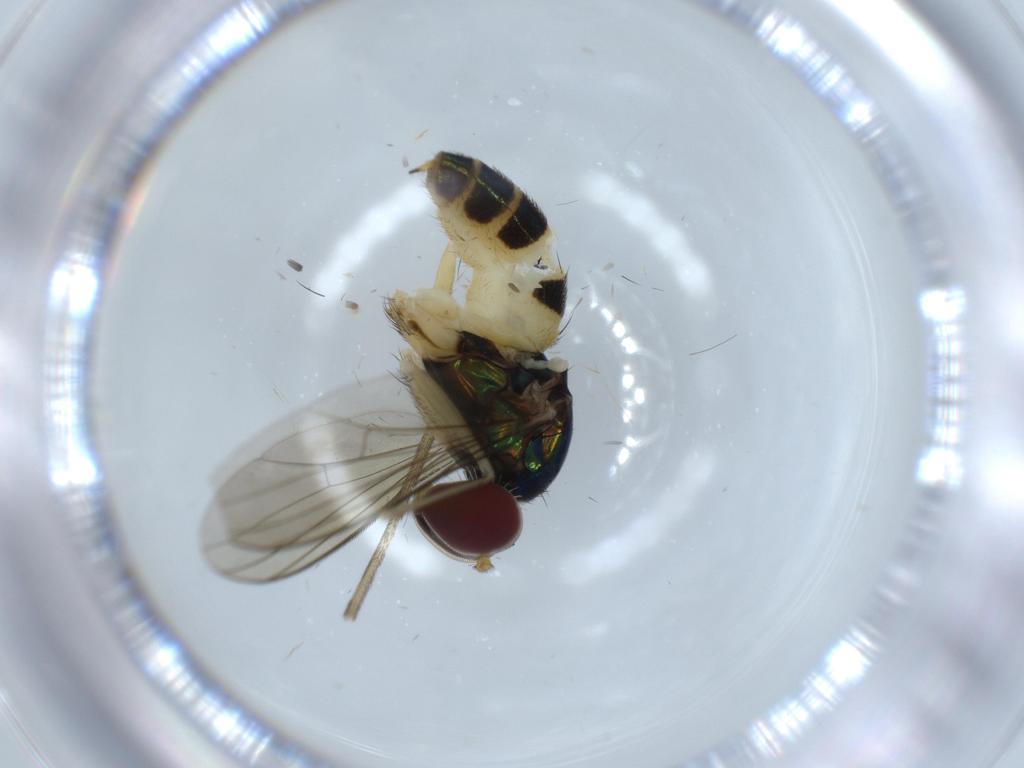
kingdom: Animalia
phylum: Arthropoda
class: Insecta
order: Diptera
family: Dolichopodidae
